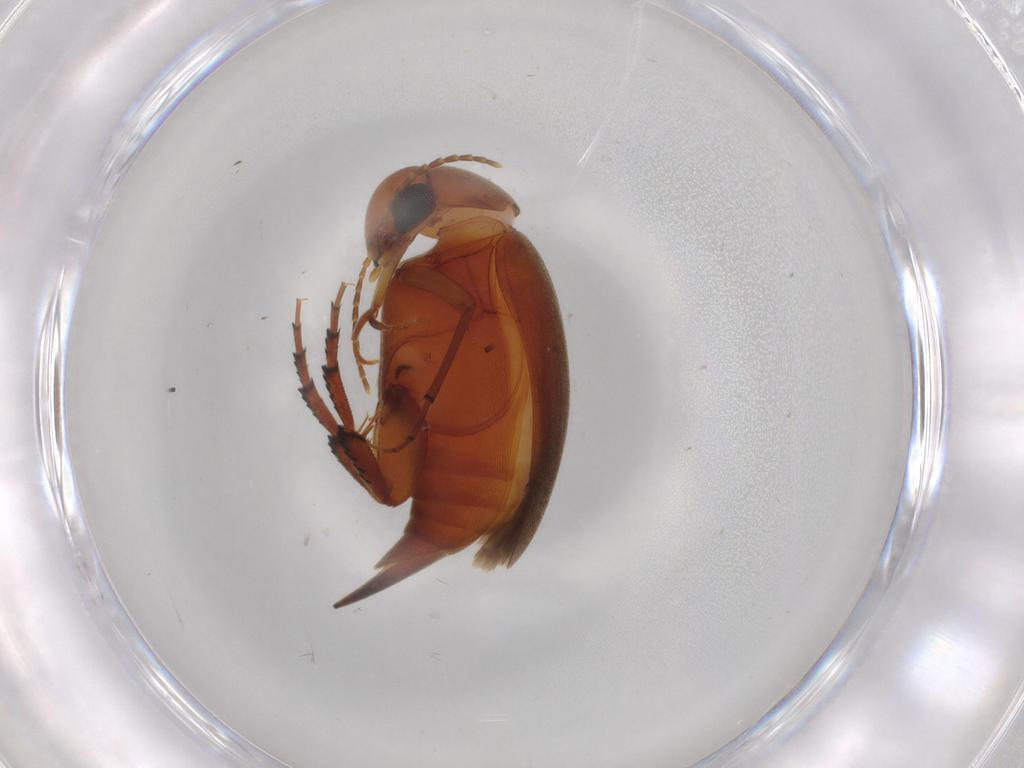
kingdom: Animalia
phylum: Arthropoda
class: Insecta
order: Coleoptera
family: Mordellidae
